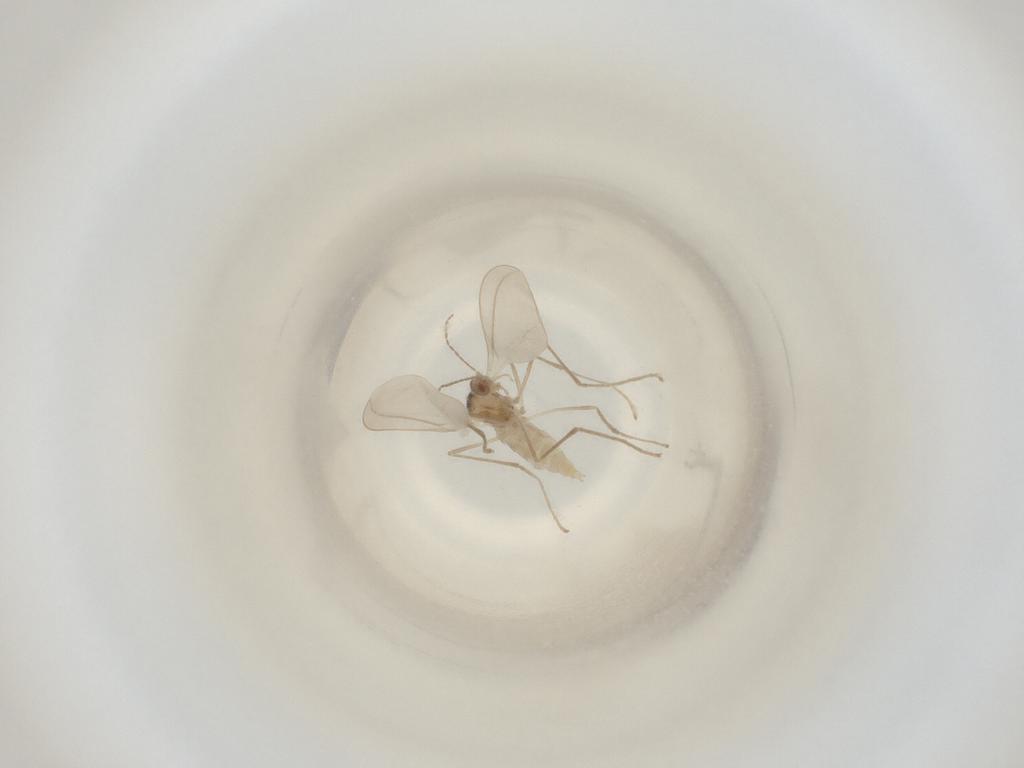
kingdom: Animalia
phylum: Arthropoda
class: Insecta
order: Diptera
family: Cecidomyiidae
